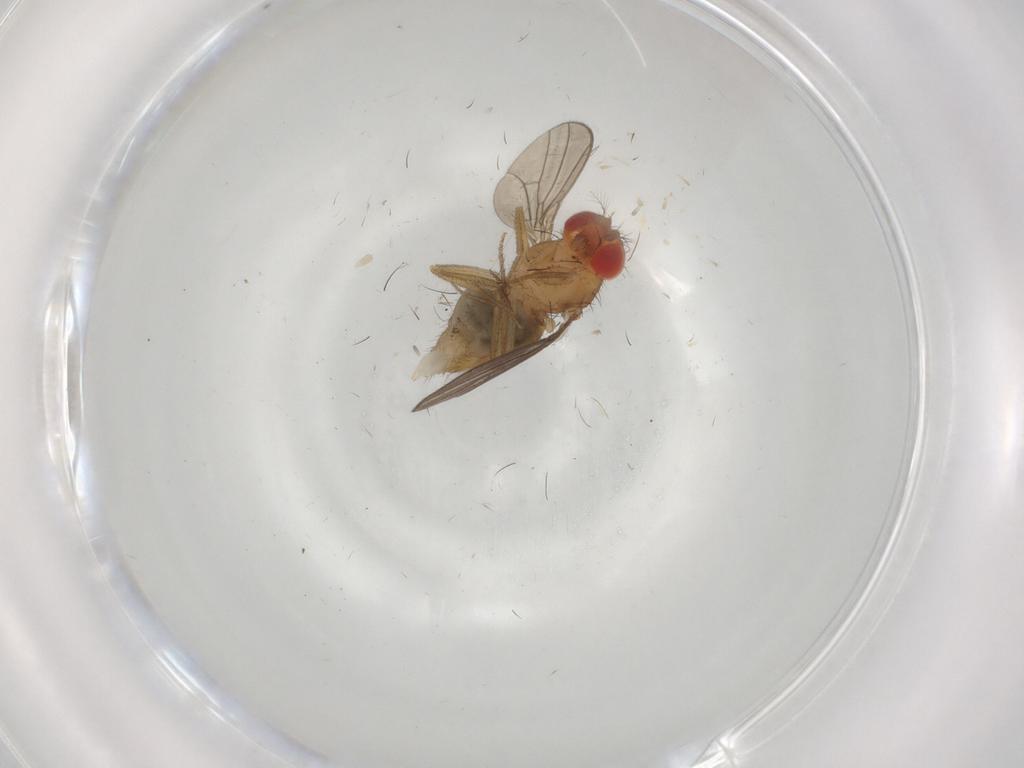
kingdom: Animalia
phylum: Arthropoda
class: Insecta
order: Diptera
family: Drosophilidae
